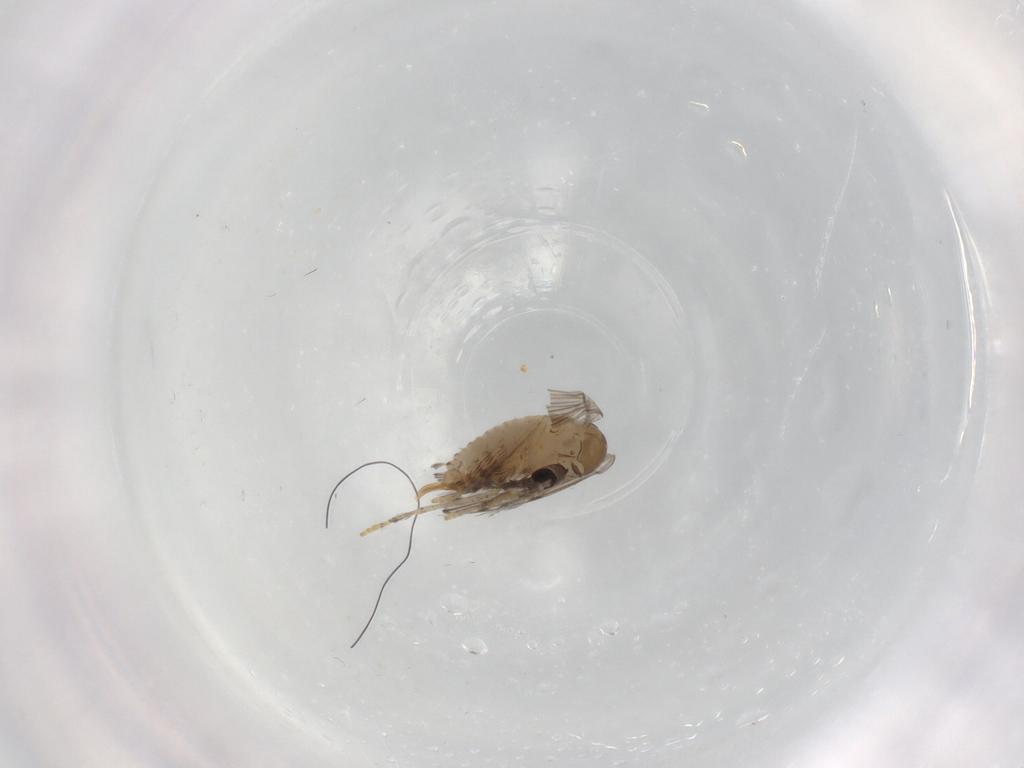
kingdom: Animalia
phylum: Arthropoda
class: Insecta
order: Diptera
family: Psychodidae
